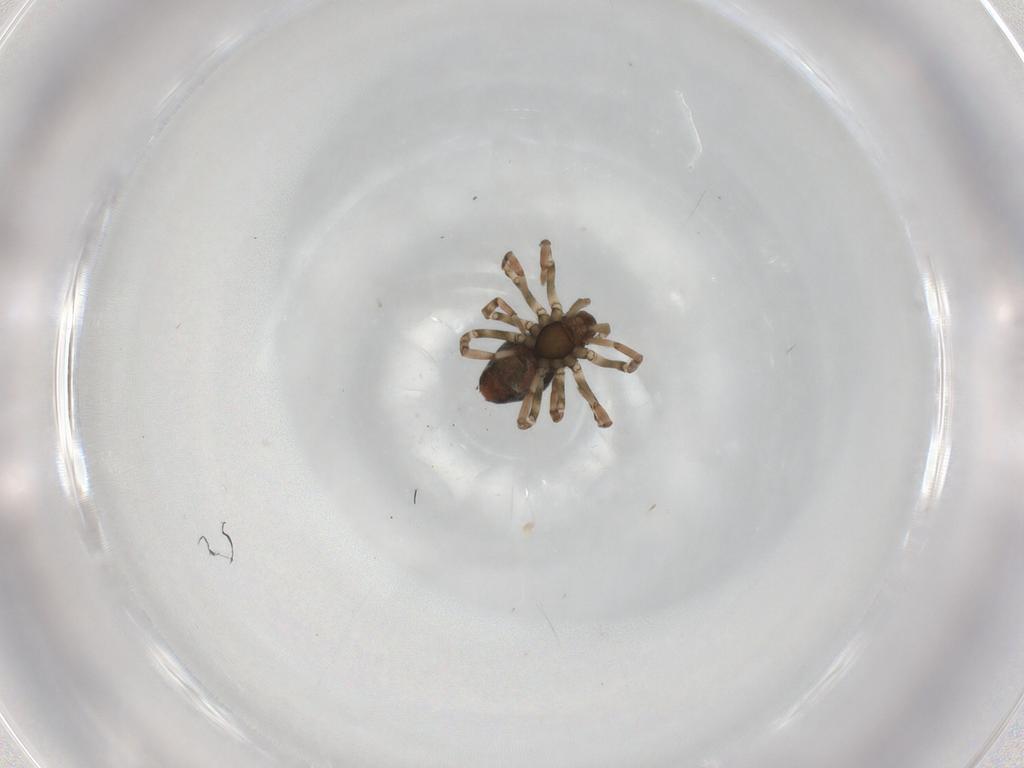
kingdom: Animalia
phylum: Arthropoda
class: Arachnida
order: Araneae
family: Dictynidae
